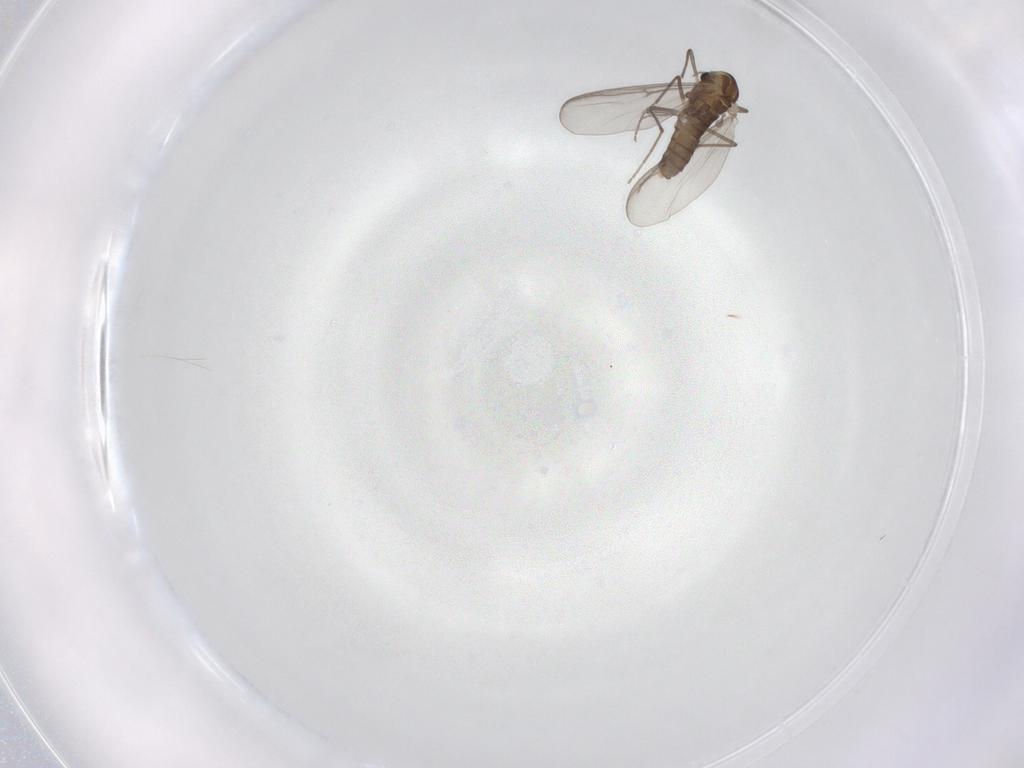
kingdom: Animalia
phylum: Arthropoda
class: Insecta
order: Diptera
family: Chironomidae
